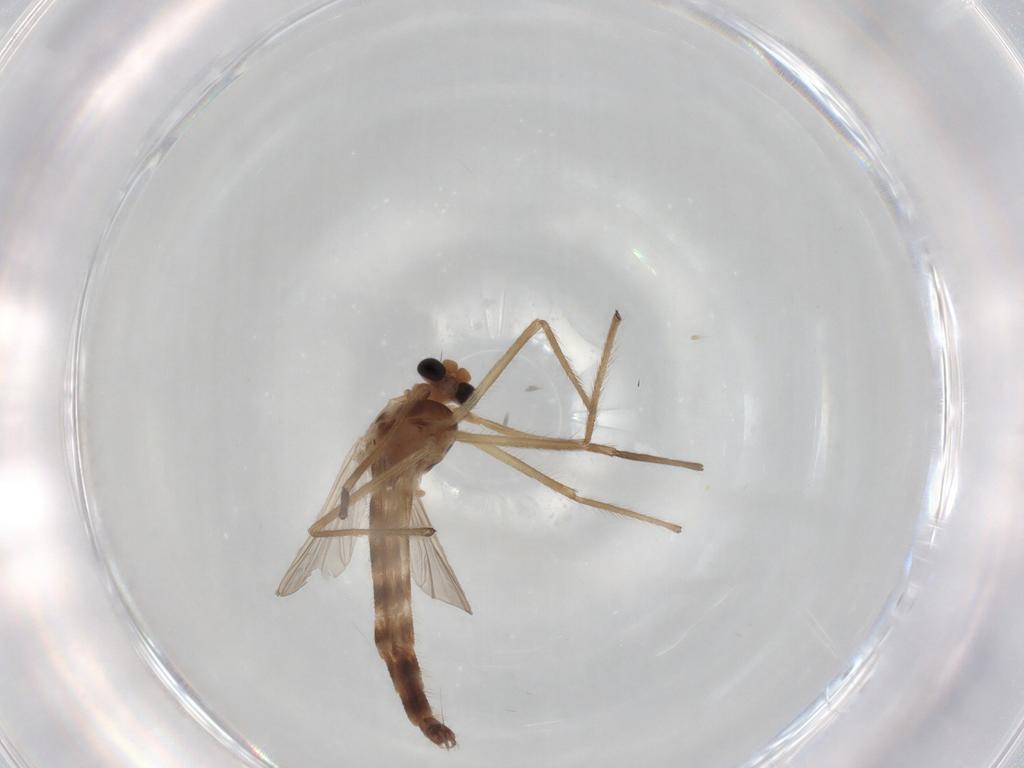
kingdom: Animalia
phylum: Arthropoda
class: Insecta
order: Diptera
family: Chironomidae
